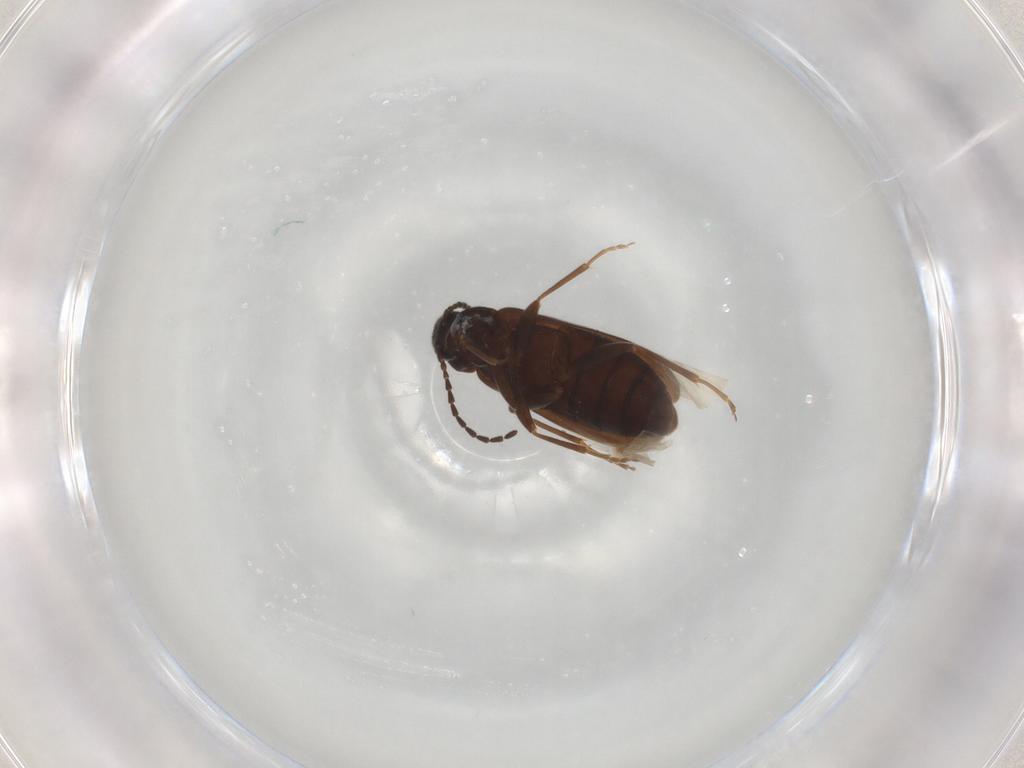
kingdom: Animalia
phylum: Arthropoda
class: Insecta
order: Coleoptera
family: Scraptiidae
